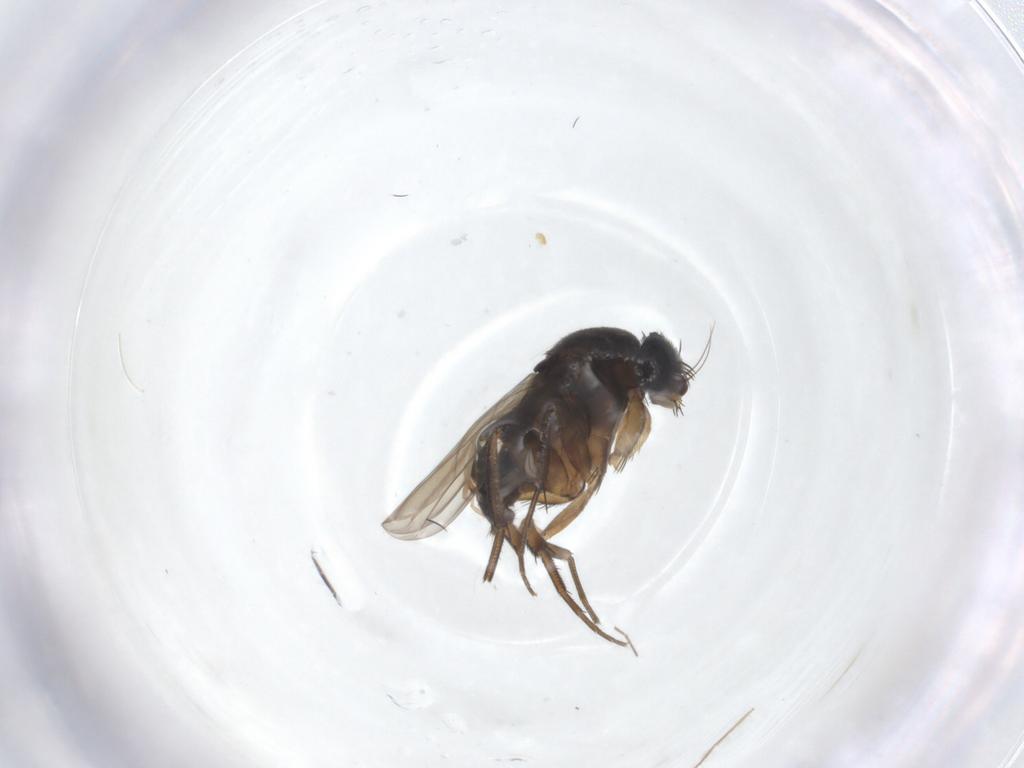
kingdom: Animalia
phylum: Arthropoda
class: Insecta
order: Diptera
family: Phoridae
